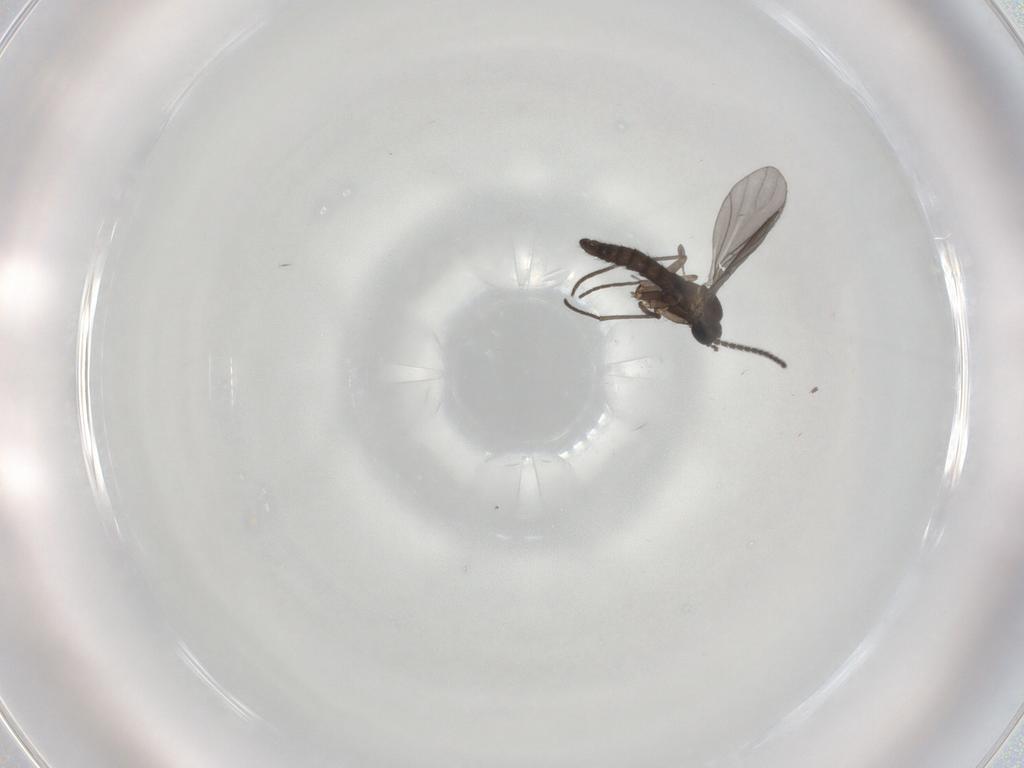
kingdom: Animalia
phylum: Arthropoda
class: Insecta
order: Diptera
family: Sciaridae
